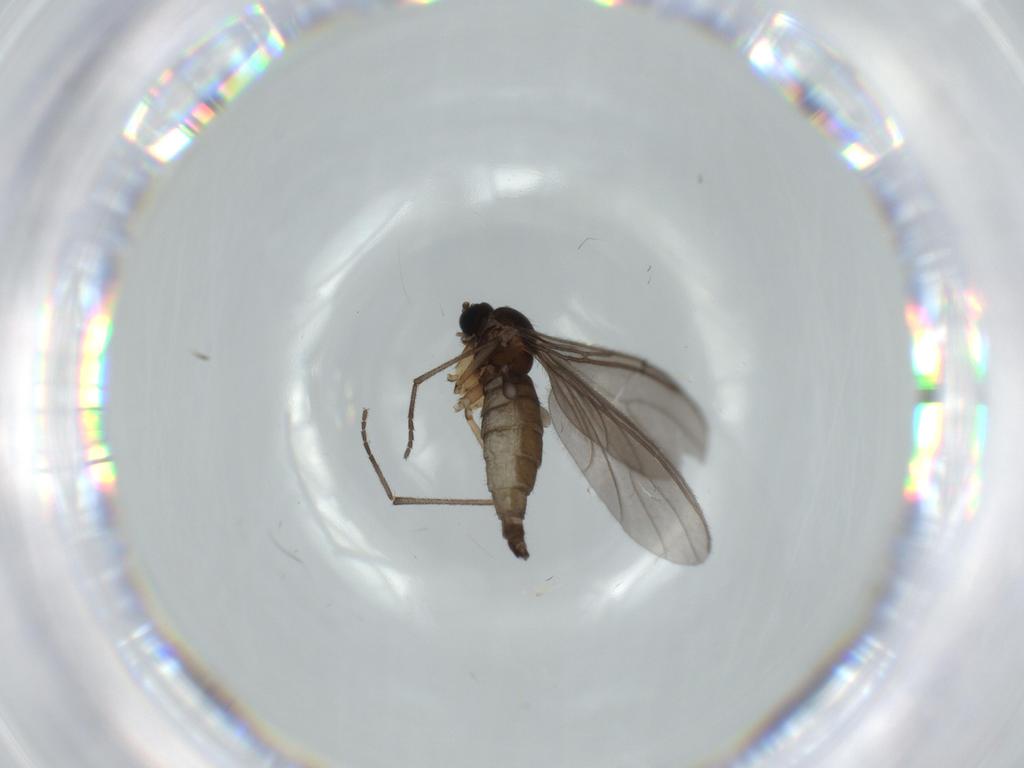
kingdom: Animalia
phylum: Arthropoda
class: Insecta
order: Diptera
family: Sciaridae
